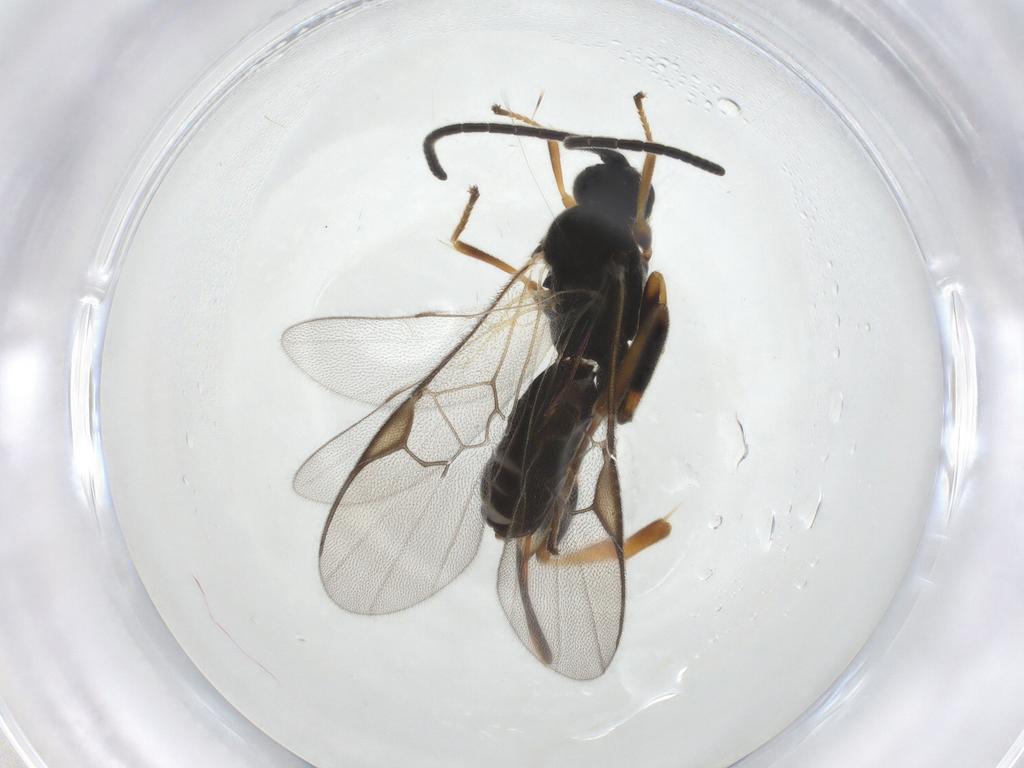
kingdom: Animalia
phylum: Arthropoda
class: Insecta
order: Hymenoptera
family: Braconidae
